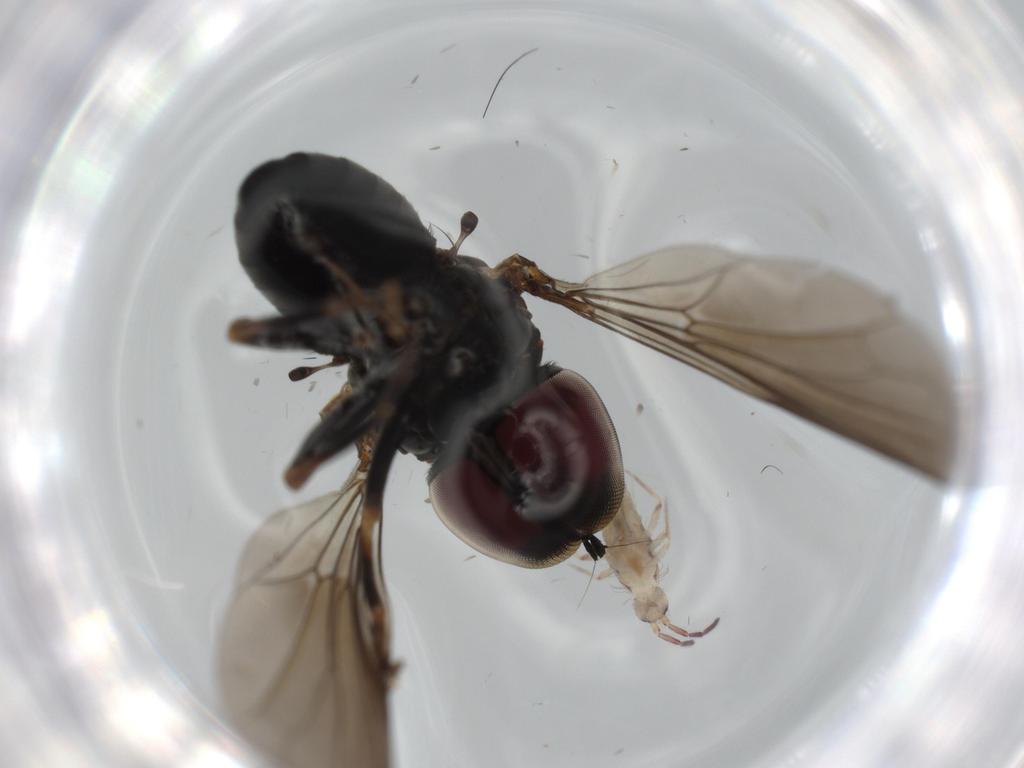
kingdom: Animalia
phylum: Arthropoda
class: Insecta
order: Diptera
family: Pipunculidae
